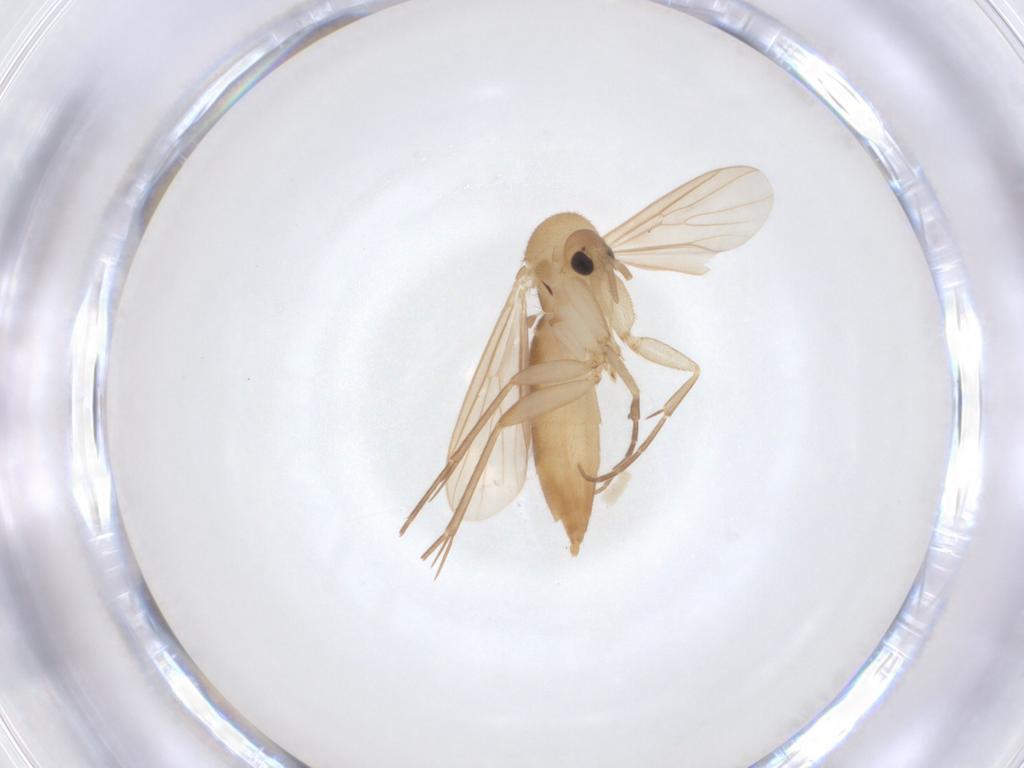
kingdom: Animalia
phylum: Arthropoda
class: Insecta
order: Diptera
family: Mycetophilidae
